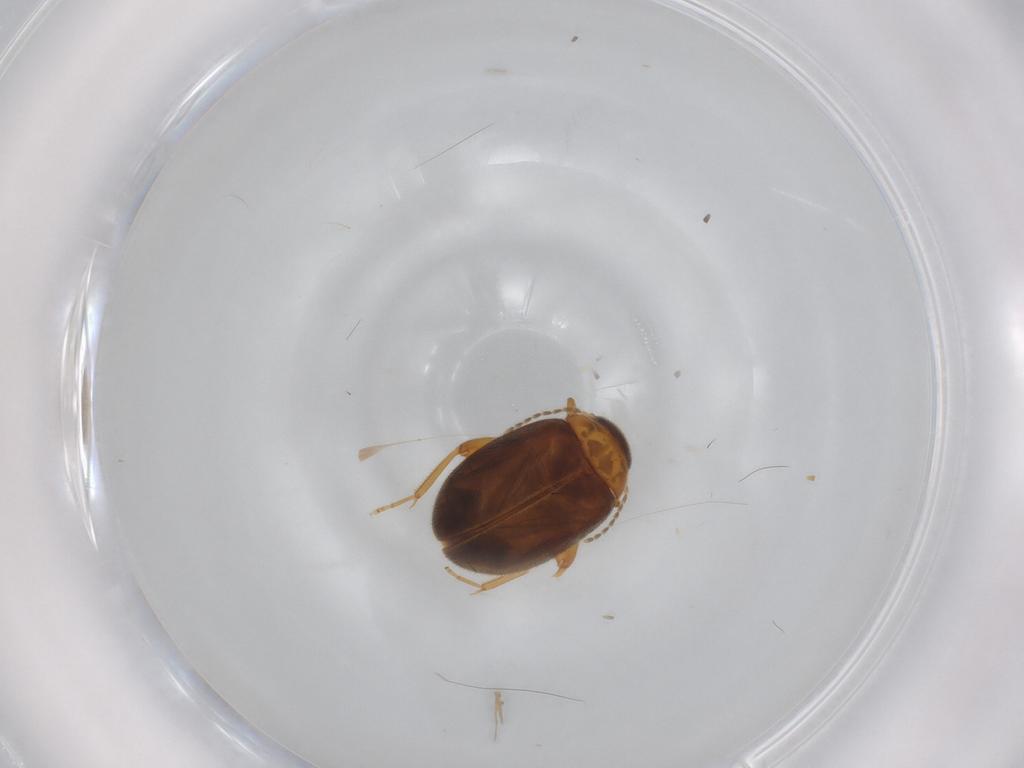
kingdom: Animalia
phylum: Arthropoda
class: Insecta
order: Coleoptera
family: Scirtidae
